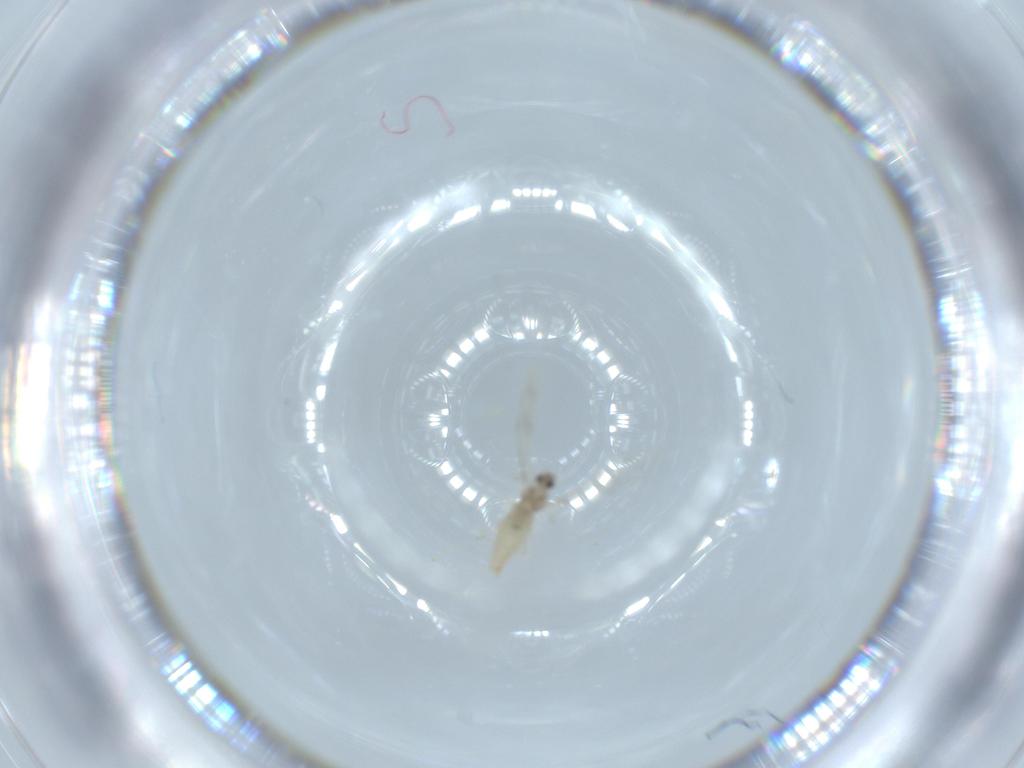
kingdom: Animalia
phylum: Arthropoda
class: Insecta
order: Diptera
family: Cecidomyiidae
